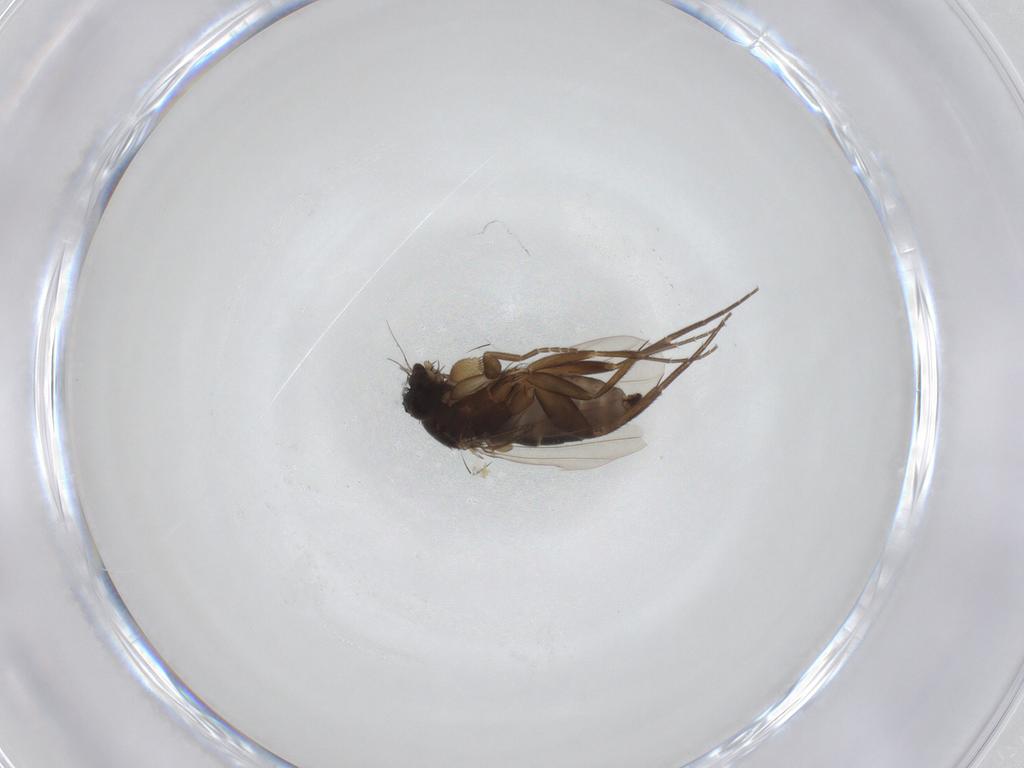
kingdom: Animalia
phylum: Arthropoda
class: Insecta
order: Diptera
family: Phoridae
